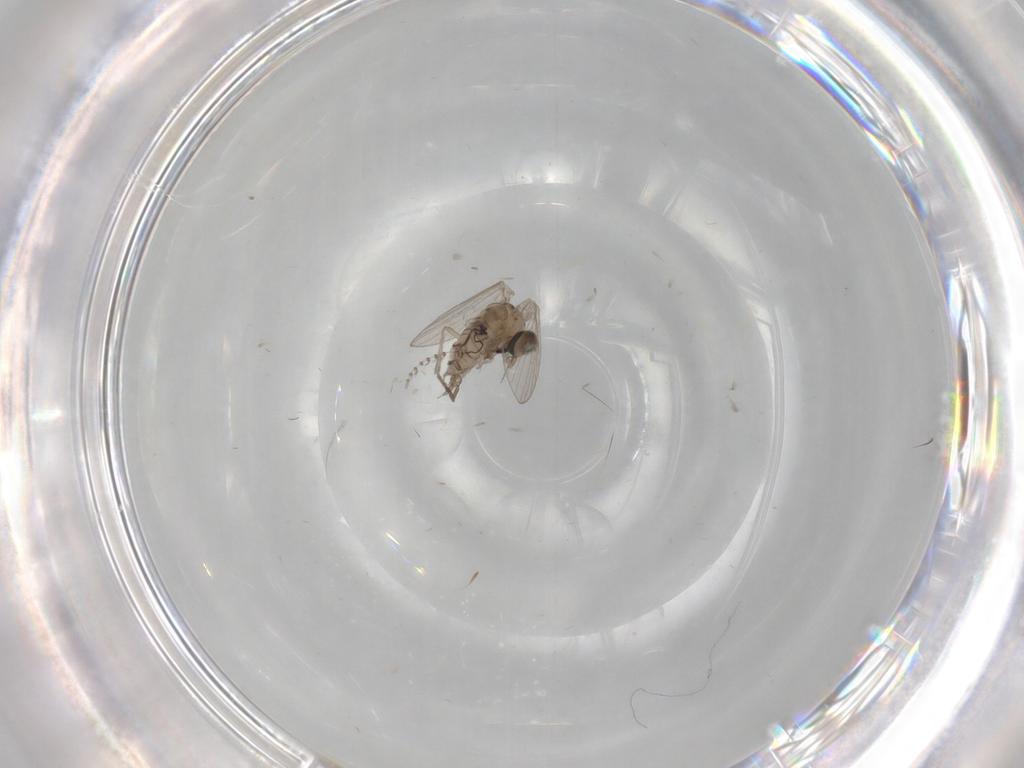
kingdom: Animalia
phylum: Arthropoda
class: Insecta
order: Diptera
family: Ceratopogonidae
